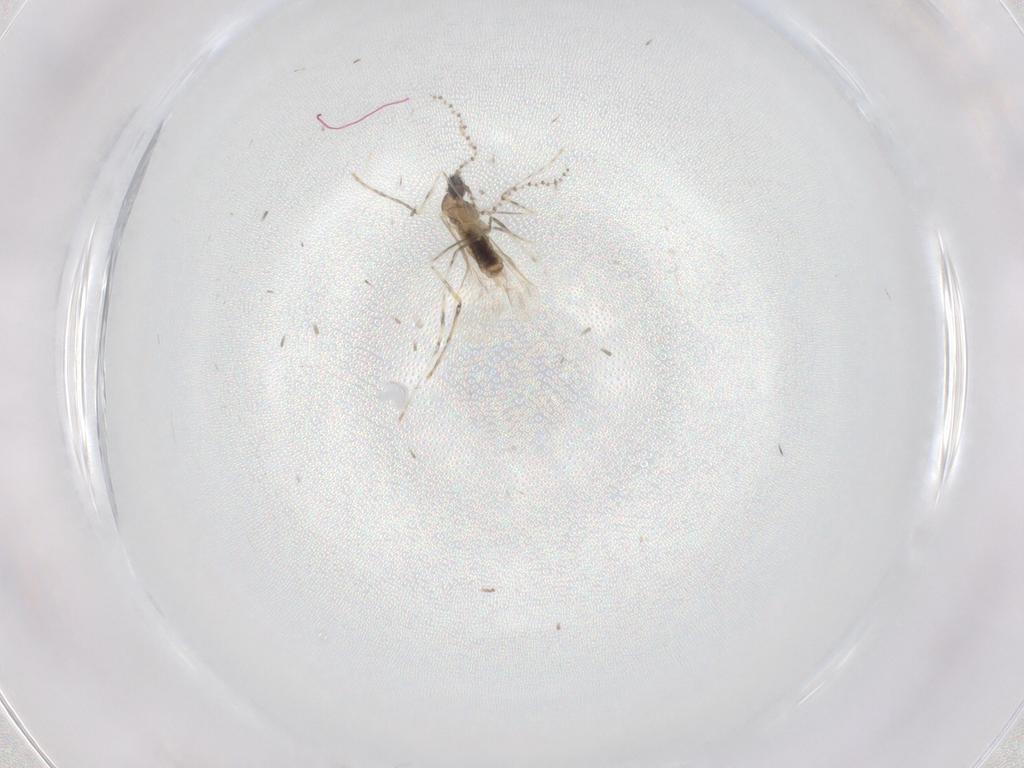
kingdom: Animalia
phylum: Arthropoda
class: Insecta
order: Diptera
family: Cecidomyiidae
